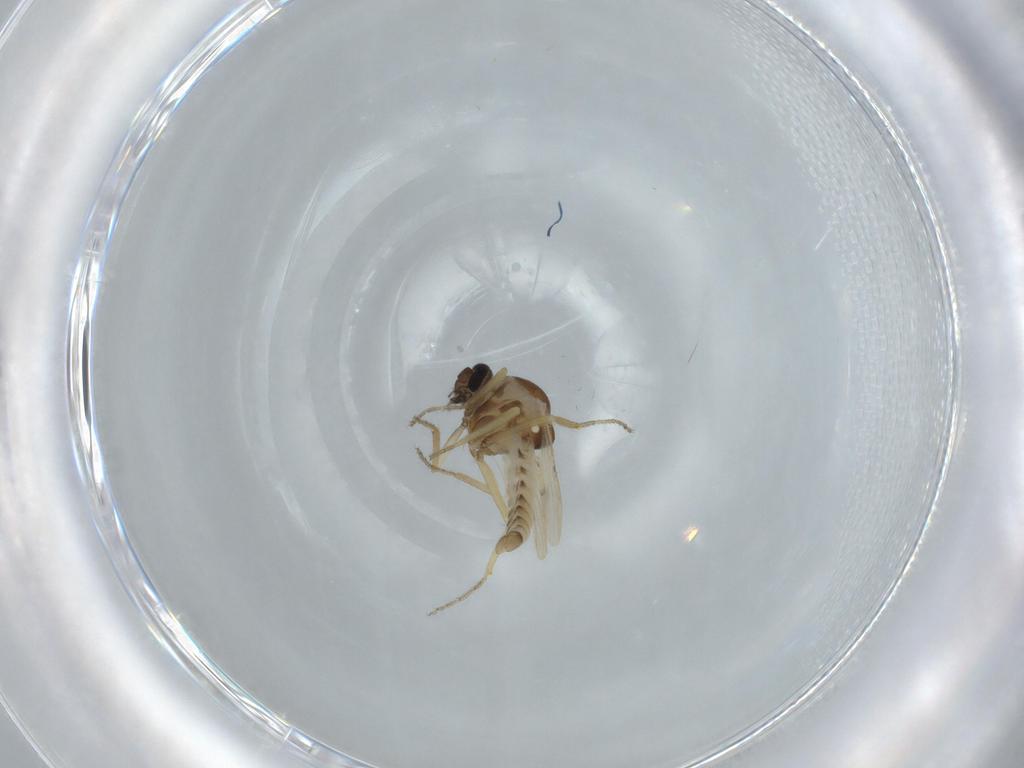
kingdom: Animalia
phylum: Arthropoda
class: Insecta
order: Diptera
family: Ceratopogonidae
